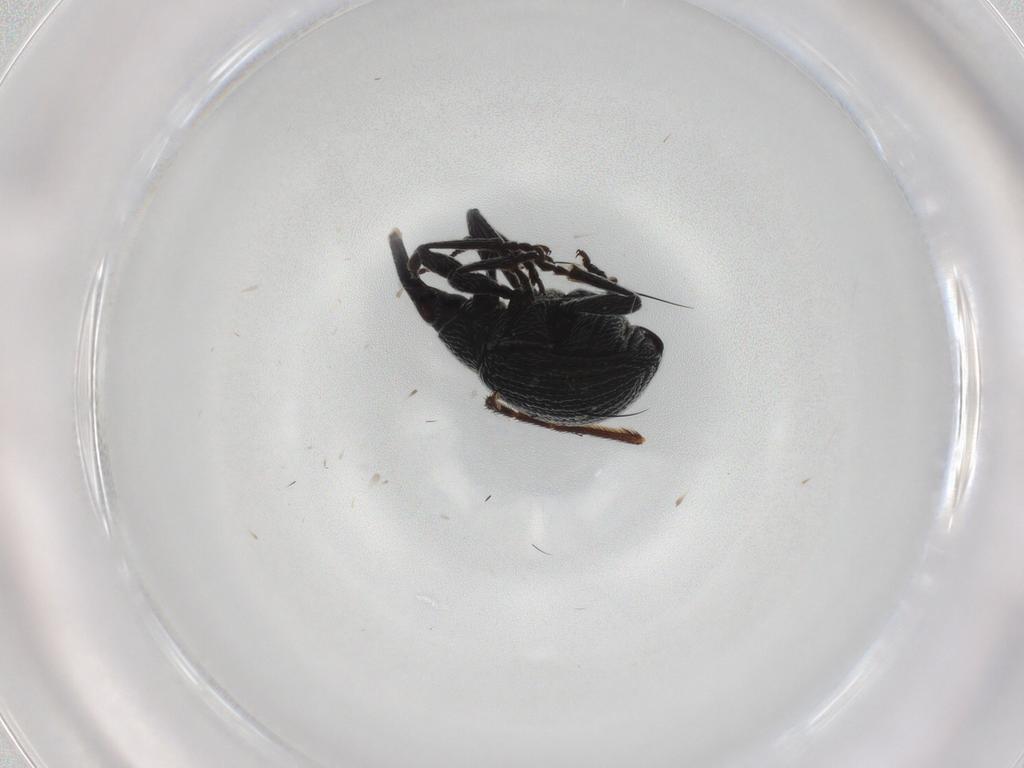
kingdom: Animalia
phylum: Arthropoda
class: Insecta
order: Coleoptera
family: Brentidae
